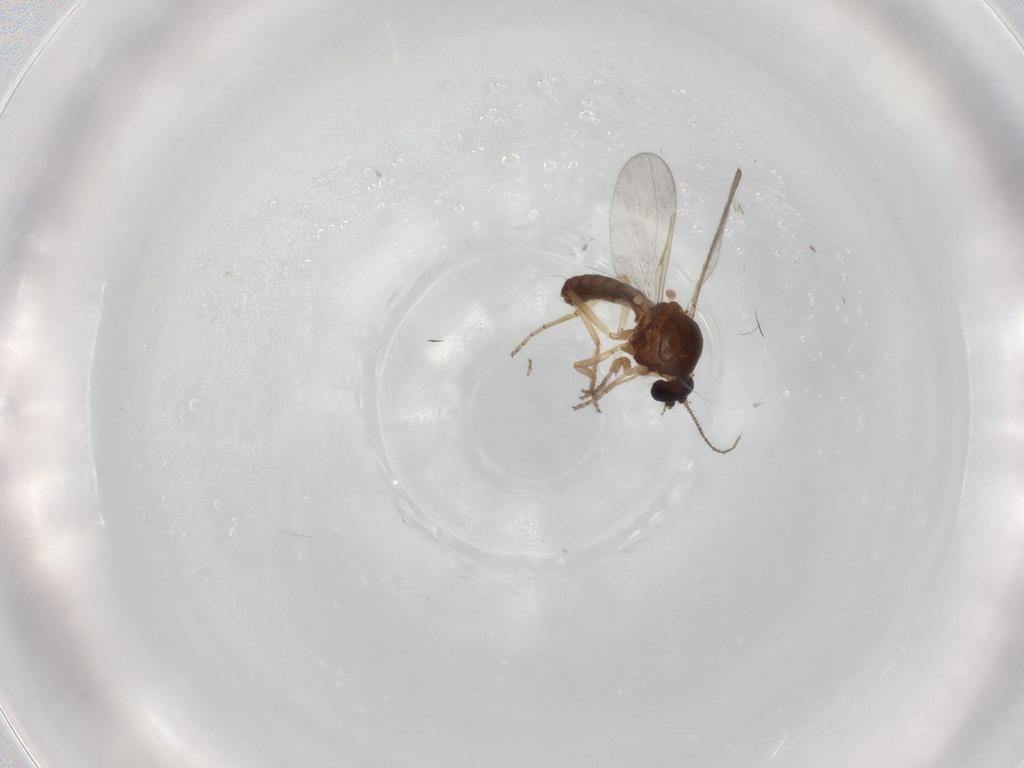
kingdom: Animalia
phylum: Arthropoda
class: Insecta
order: Diptera
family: Ceratopogonidae
